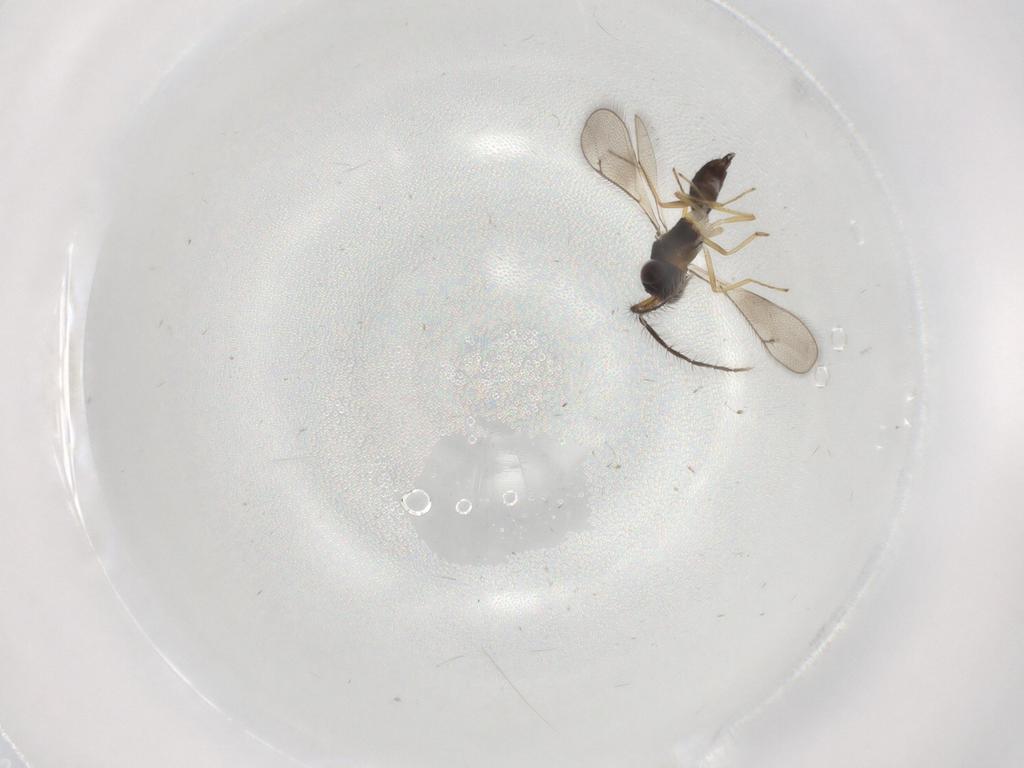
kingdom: Animalia
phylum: Arthropoda
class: Insecta
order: Hymenoptera
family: Eulophidae
